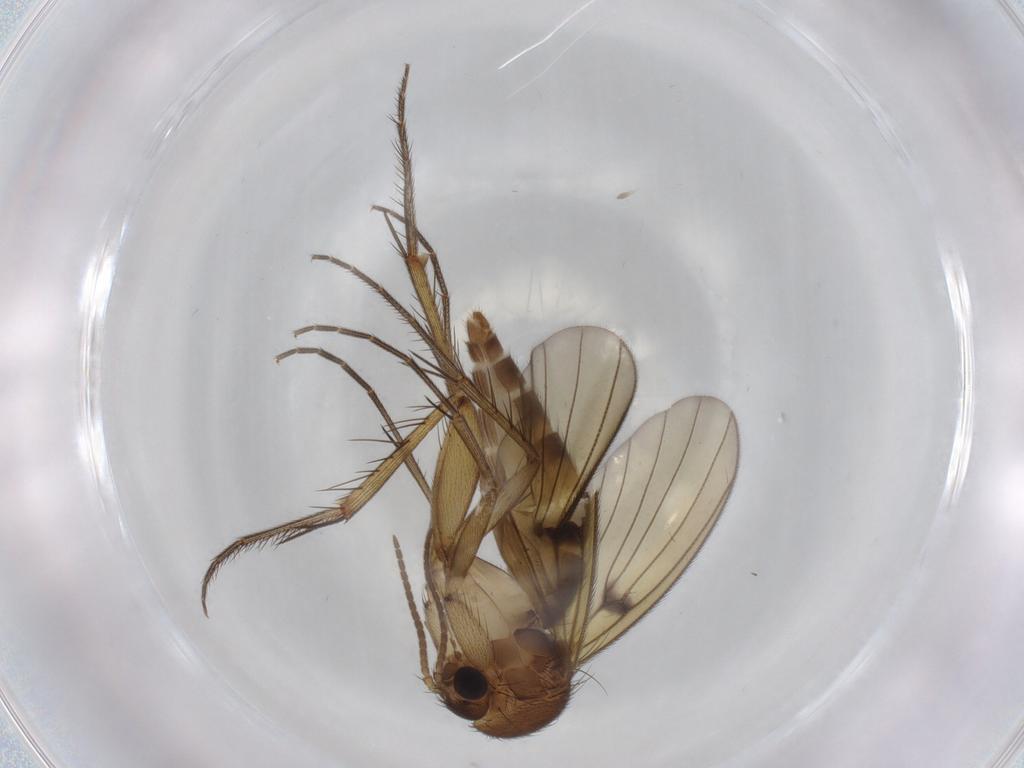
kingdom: Animalia
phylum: Arthropoda
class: Insecta
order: Diptera
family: Mycetophilidae
